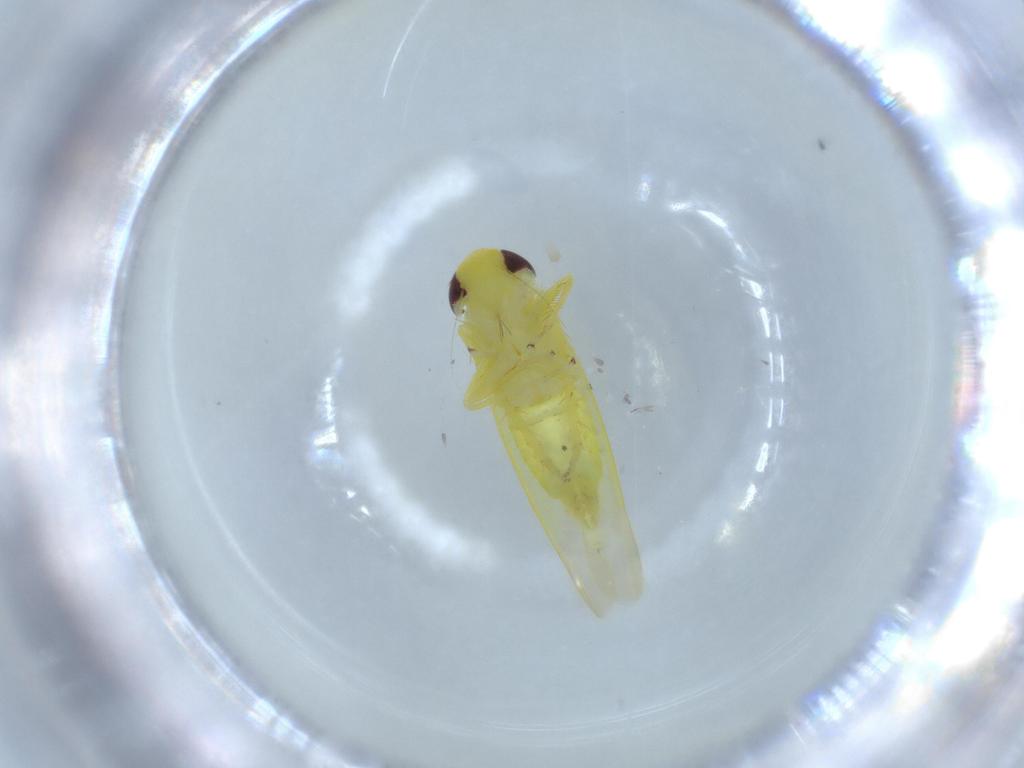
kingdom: Animalia
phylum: Arthropoda
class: Insecta
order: Hemiptera
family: Cicadellidae
